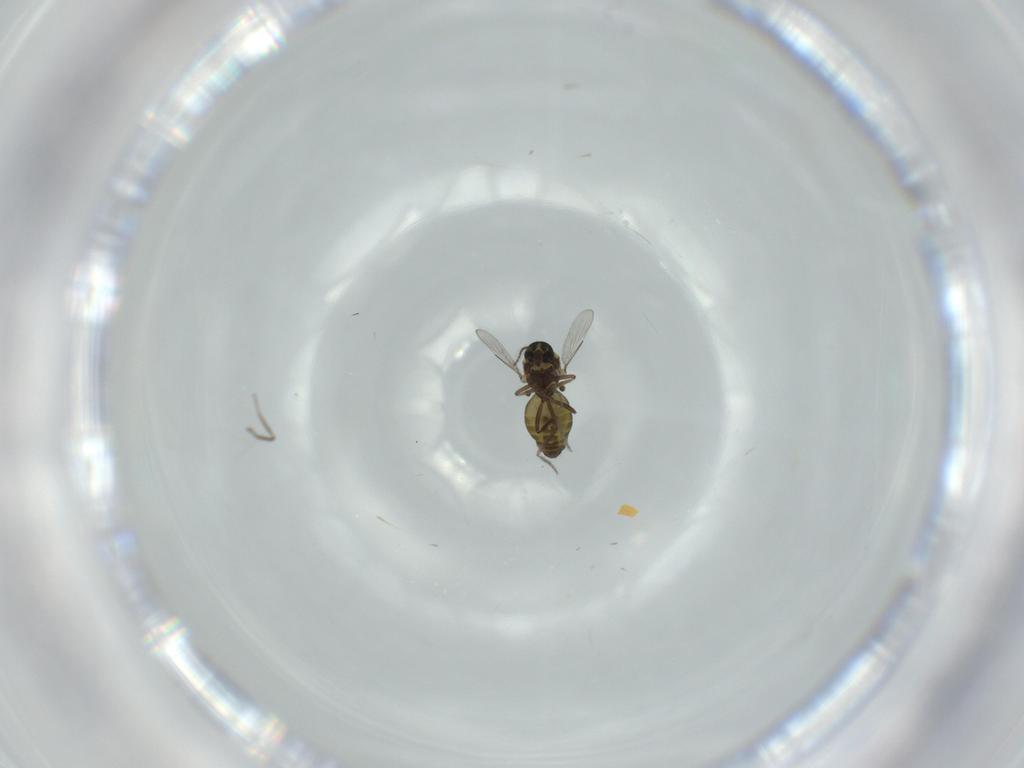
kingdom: Animalia
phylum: Arthropoda
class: Insecta
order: Diptera
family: Ceratopogonidae
